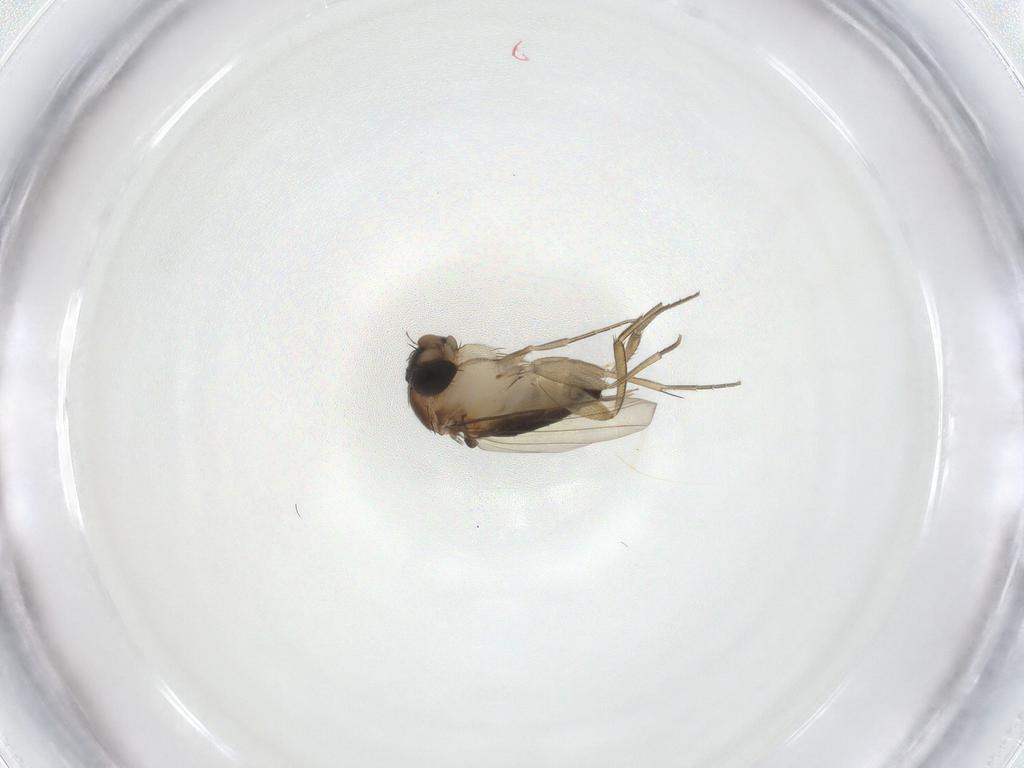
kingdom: Animalia
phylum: Arthropoda
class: Insecta
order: Diptera
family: Phoridae
